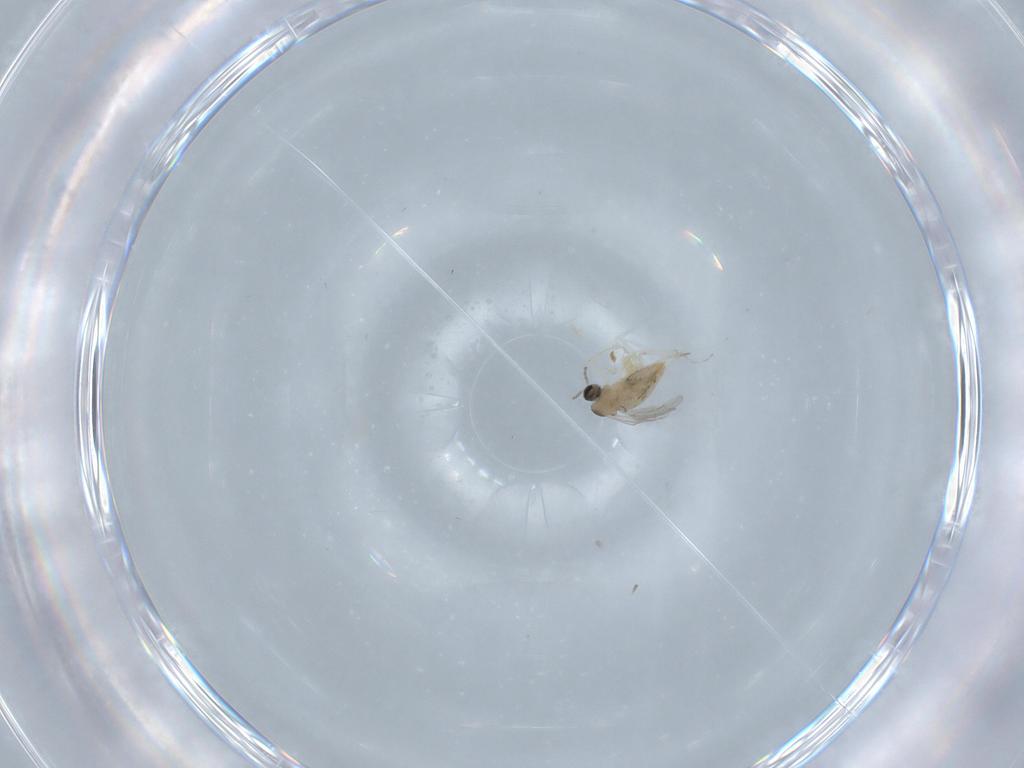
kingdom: Animalia
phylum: Arthropoda
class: Insecta
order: Diptera
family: Cecidomyiidae
